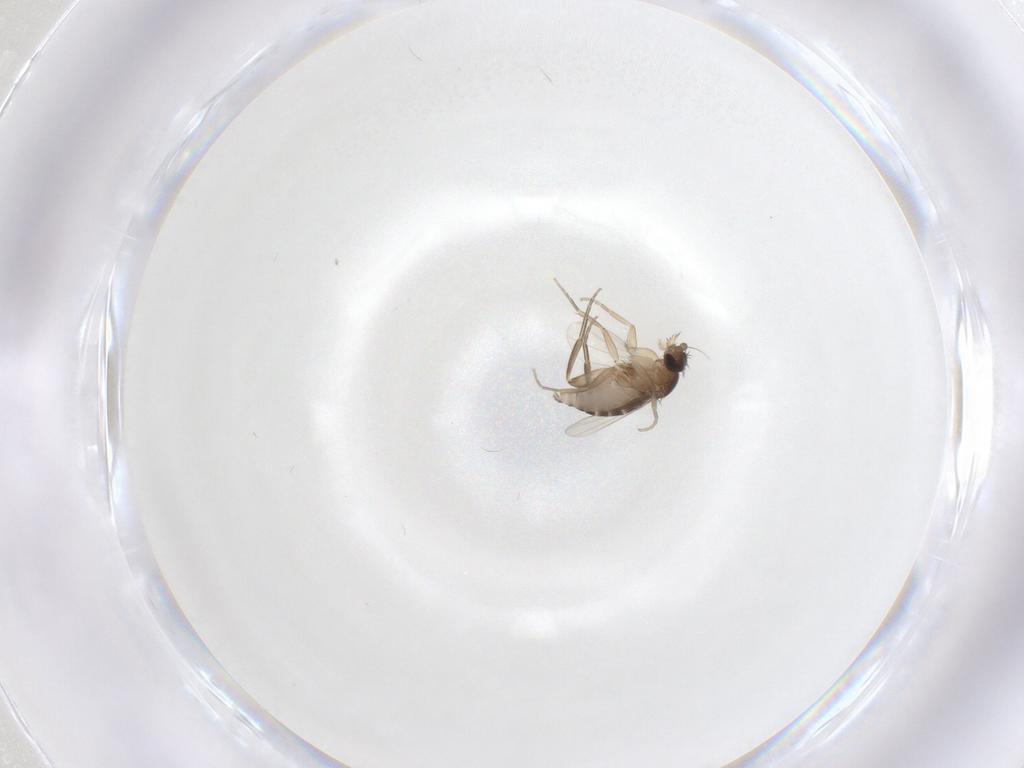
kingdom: Animalia
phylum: Arthropoda
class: Insecta
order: Diptera
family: Phoridae
